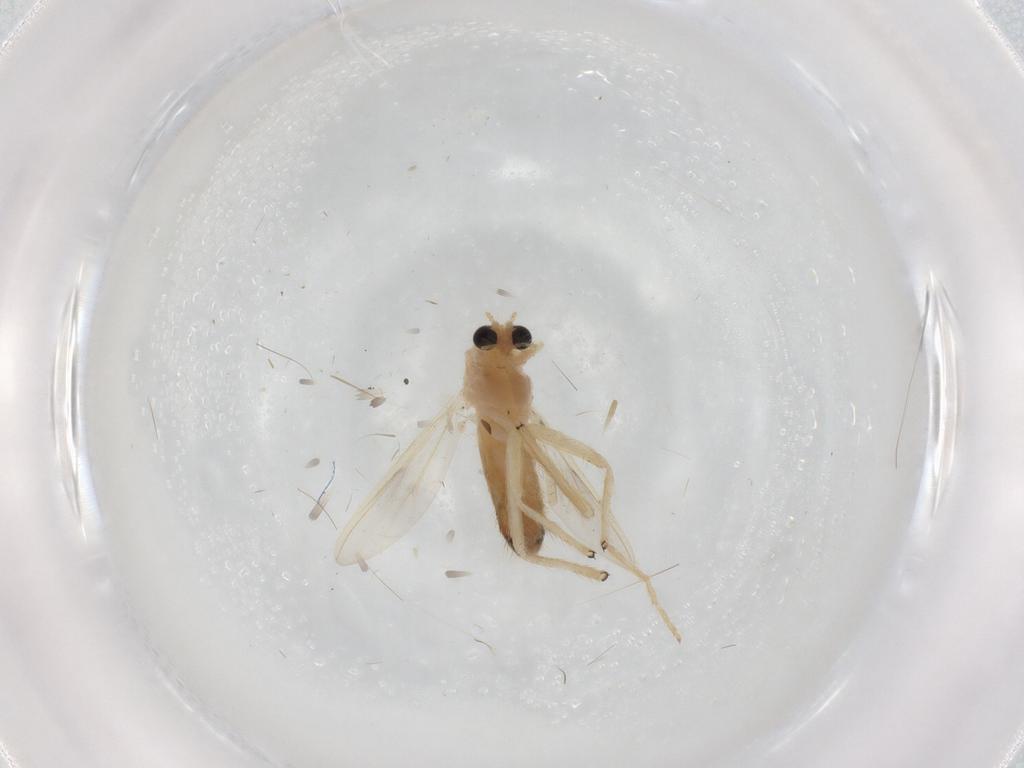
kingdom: Animalia
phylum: Arthropoda
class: Insecta
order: Diptera
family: Chironomidae
